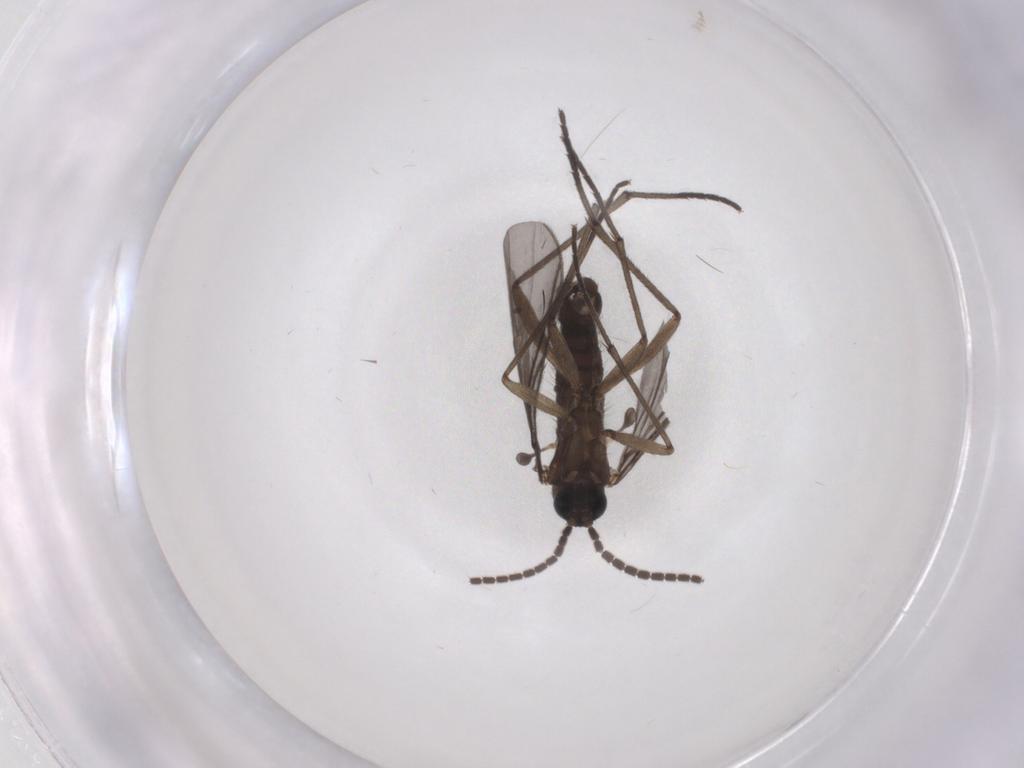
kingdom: Animalia
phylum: Arthropoda
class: Insecta
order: Diptera
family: Sciaridae
